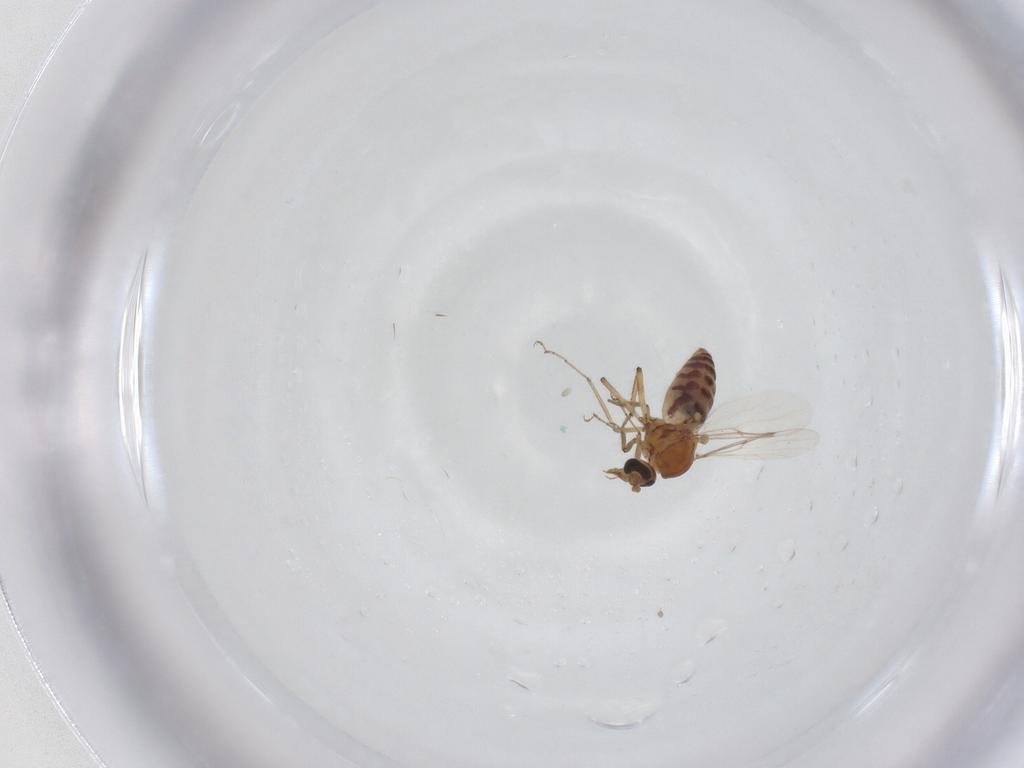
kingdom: Animalia
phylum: Arthropoda
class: Insecta
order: Diptera
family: Ceratopogonidae
